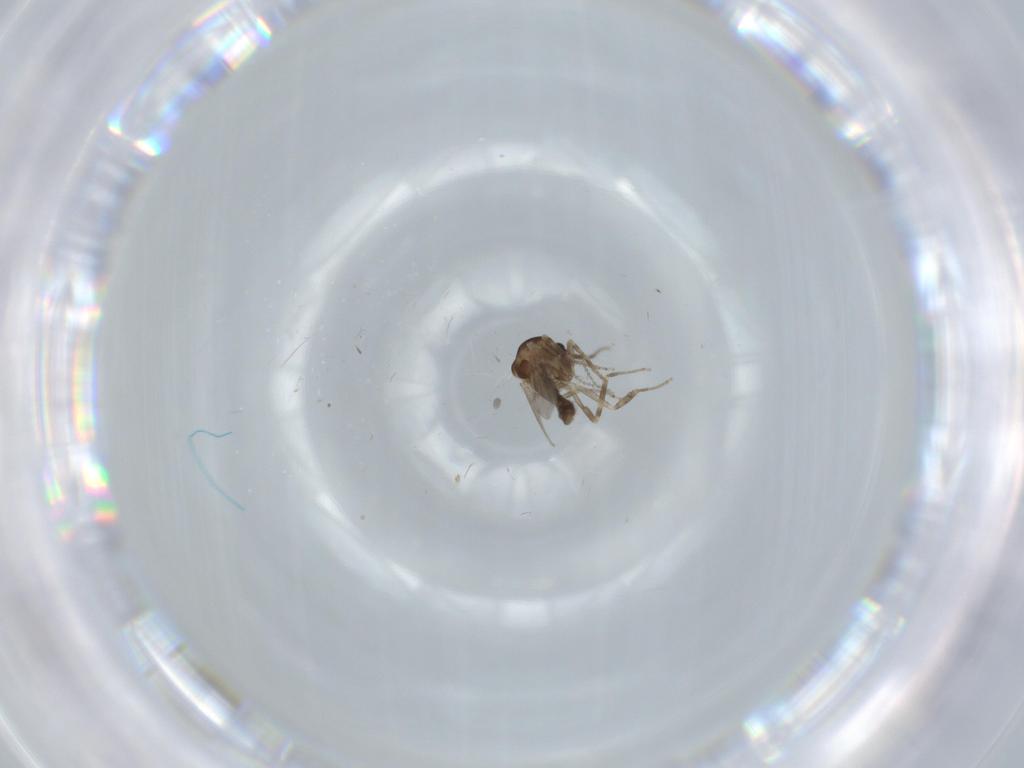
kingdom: Animalia
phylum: Arthropoda
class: Insecta
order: Diptera
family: Ceratopogonidae
